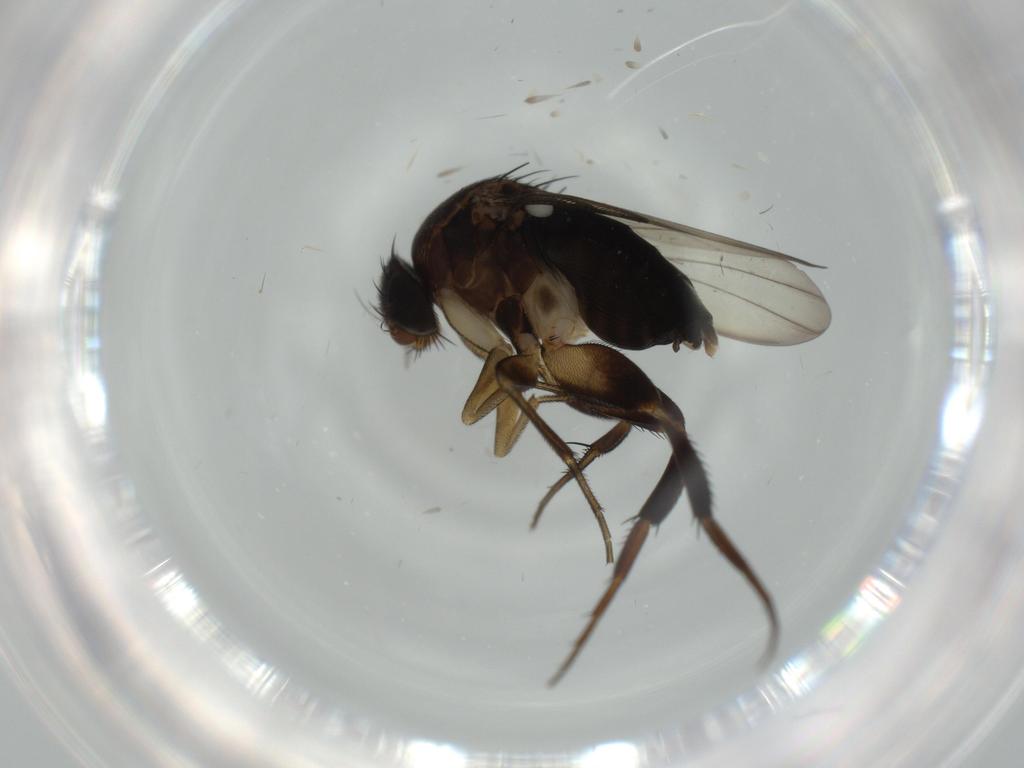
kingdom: Animalia
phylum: Arthropoda
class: Insecta
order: Diptera
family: Phoridae
